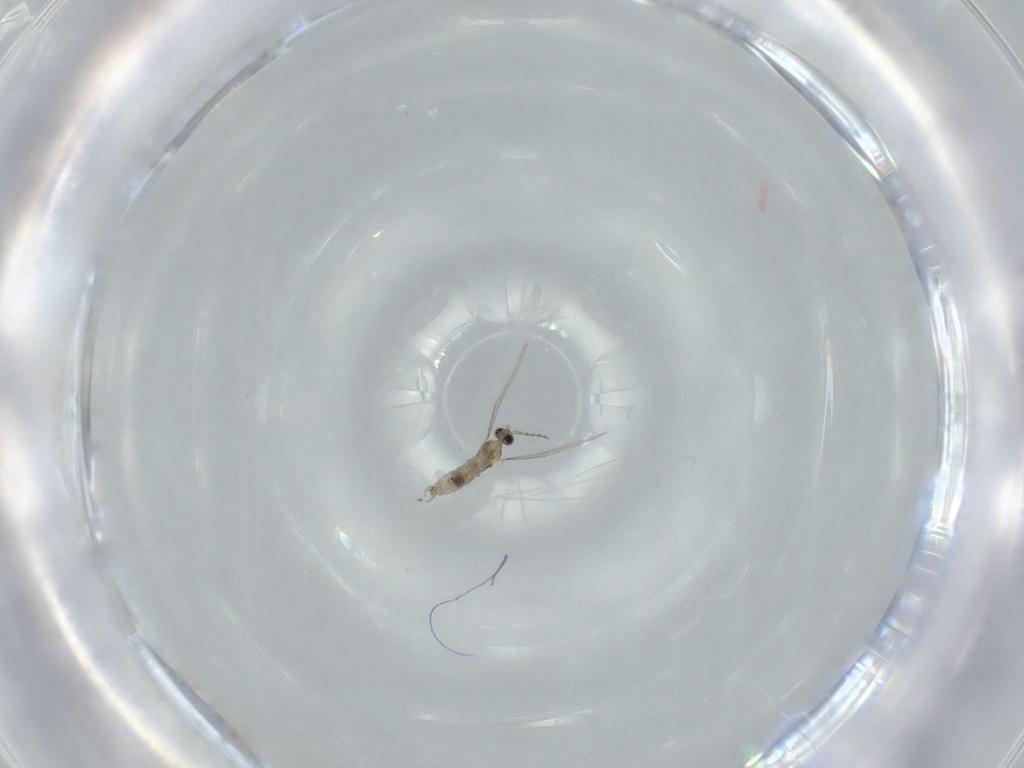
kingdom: Animalia
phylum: Arthropoda
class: Insecta
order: Diptera
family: Cecidomyiidae
